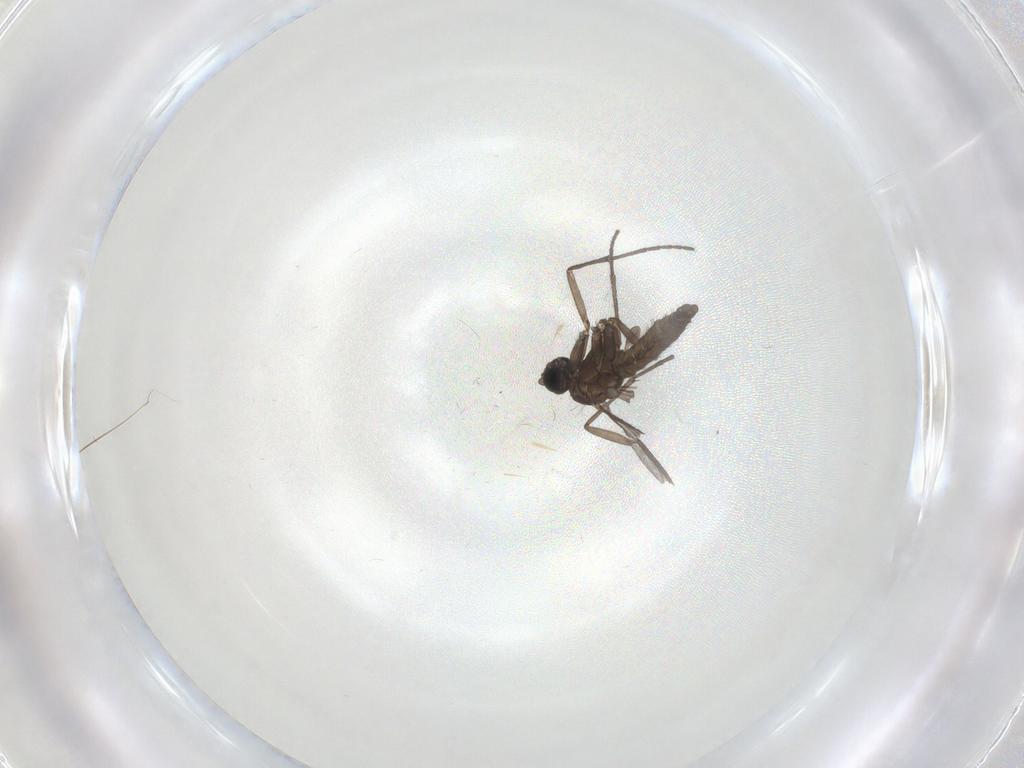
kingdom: Animalia
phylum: Arthropoda
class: Insecta
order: Diptera
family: Sciaridae
